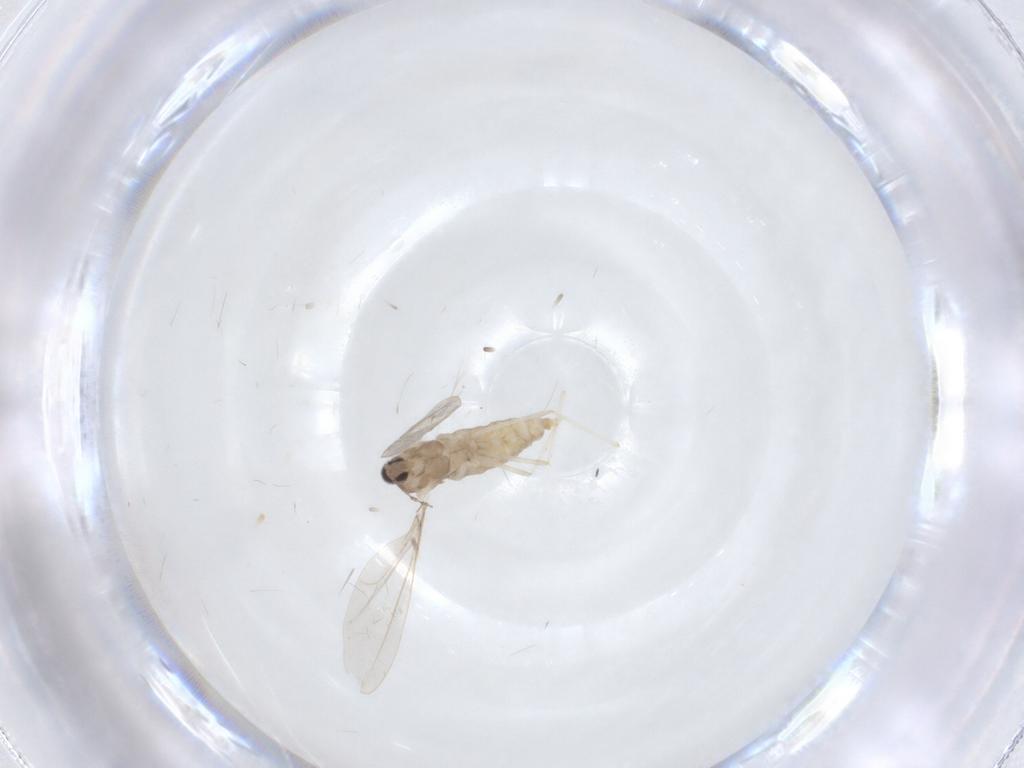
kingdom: Animalia
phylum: Arthropoda
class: Insecta
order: Diptera
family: Cecidomyiidae
